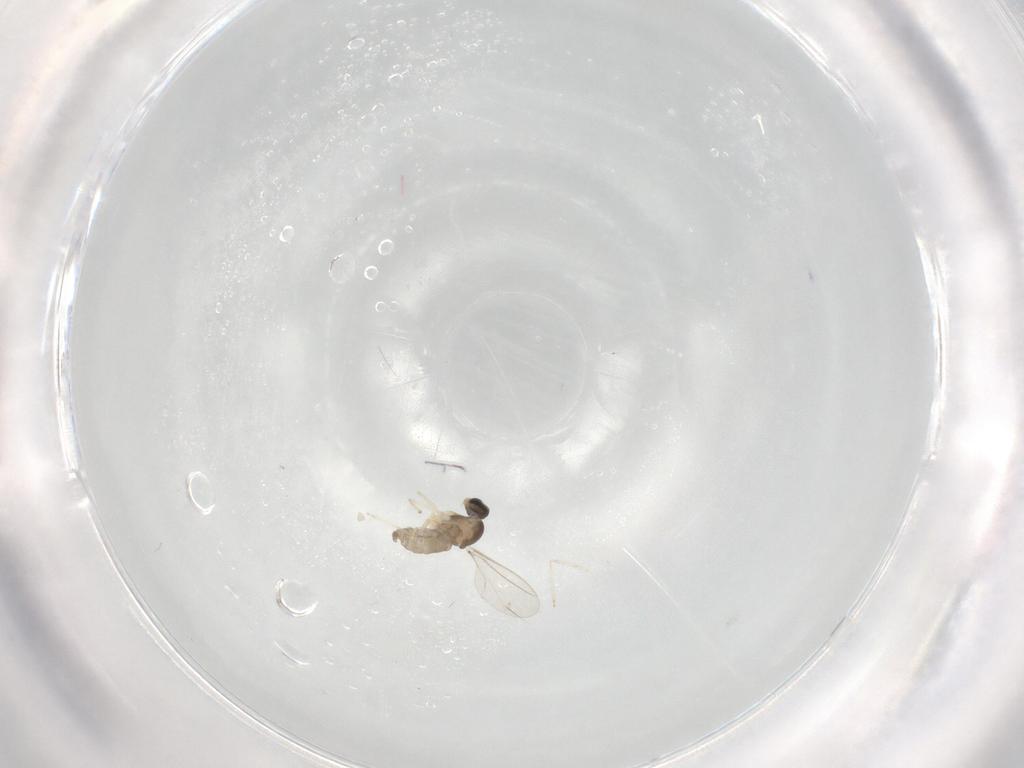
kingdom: Animalia
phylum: Arthropoda
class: Insecta
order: Diptera
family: Cecidomyiidae
